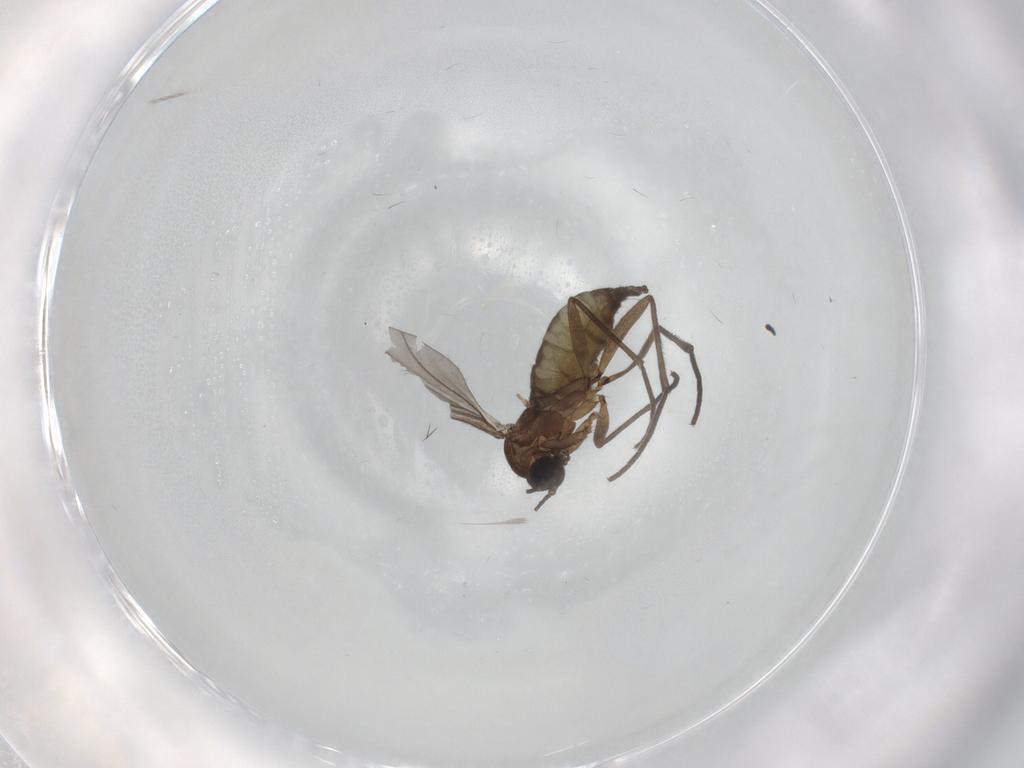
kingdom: Animalia
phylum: Arthropoda
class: Insecta
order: Diptera
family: Sciaridae
